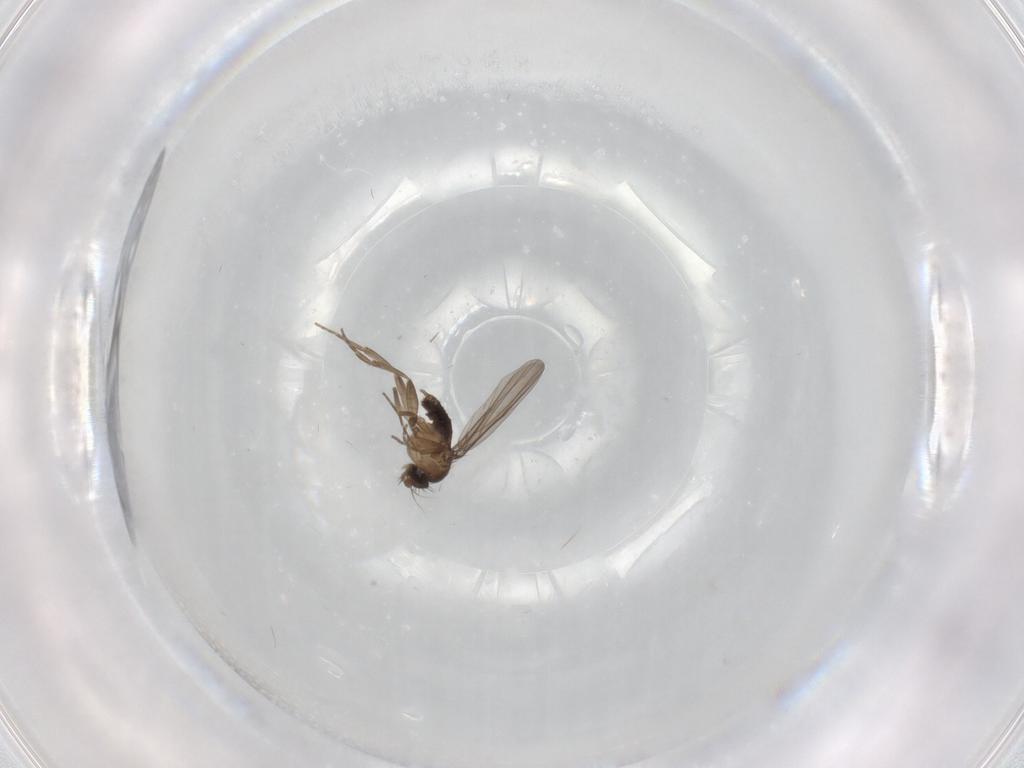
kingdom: Animalia
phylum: Arthropoda
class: Insecta
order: Diptera
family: Phoridae
